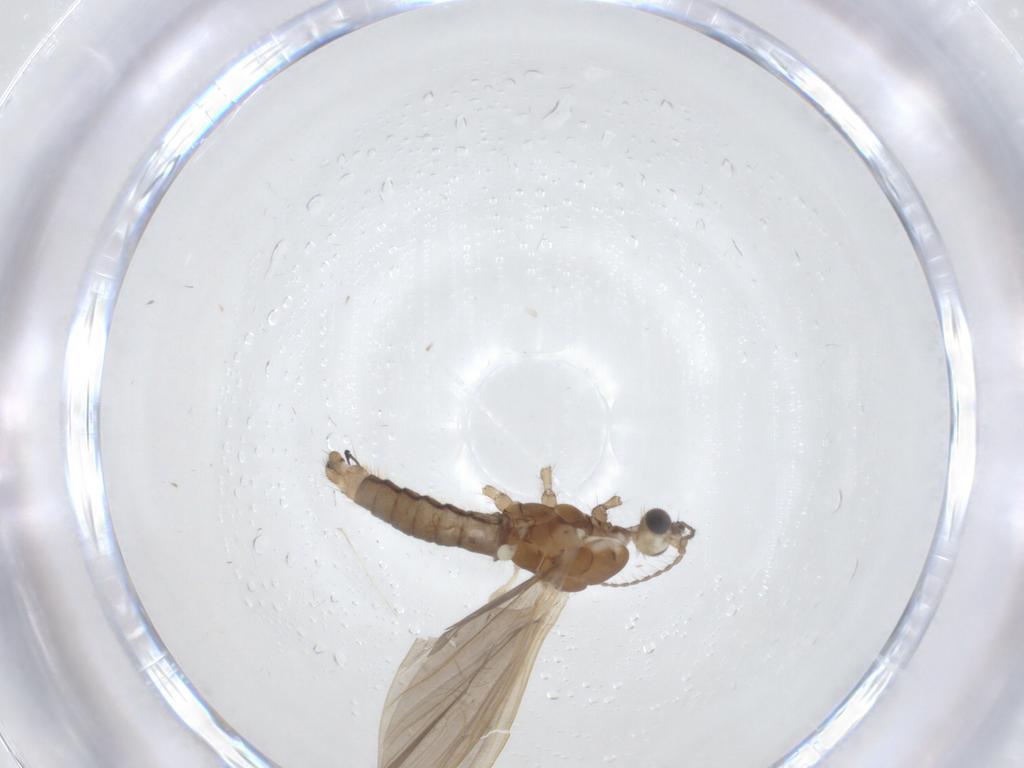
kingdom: Animalia
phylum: Arthropoda
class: Insecta
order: Diptera
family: Limoniidae
